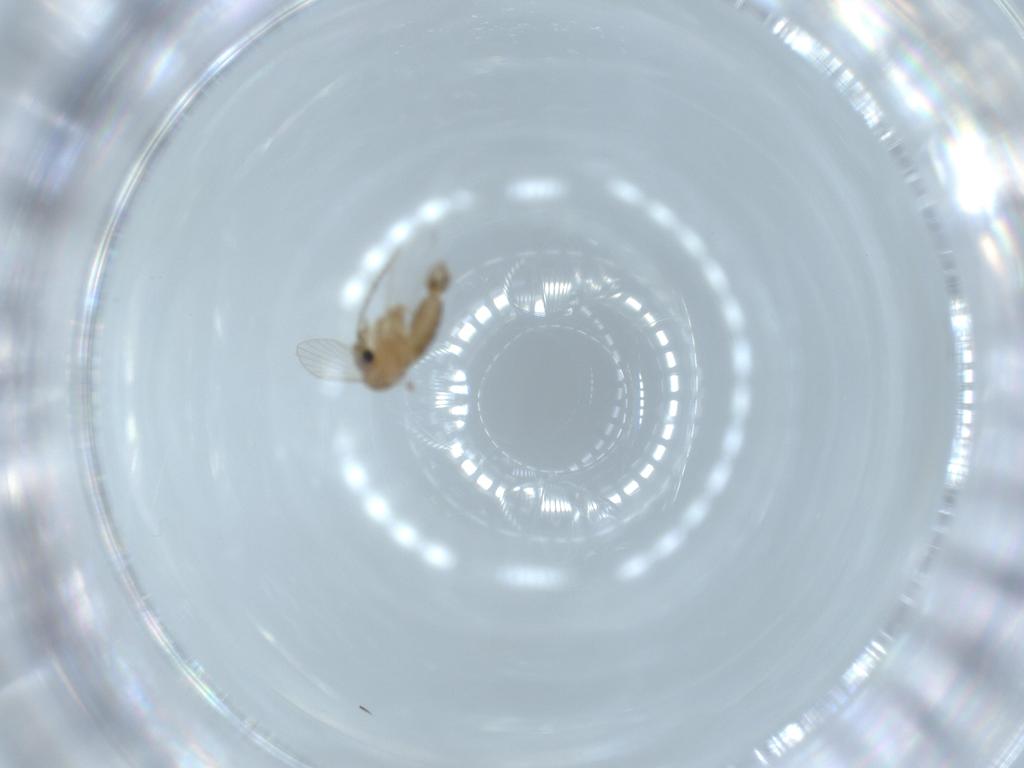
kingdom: Animalia
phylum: Arthropoda
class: Insecta
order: Diptera
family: Psychodidae
